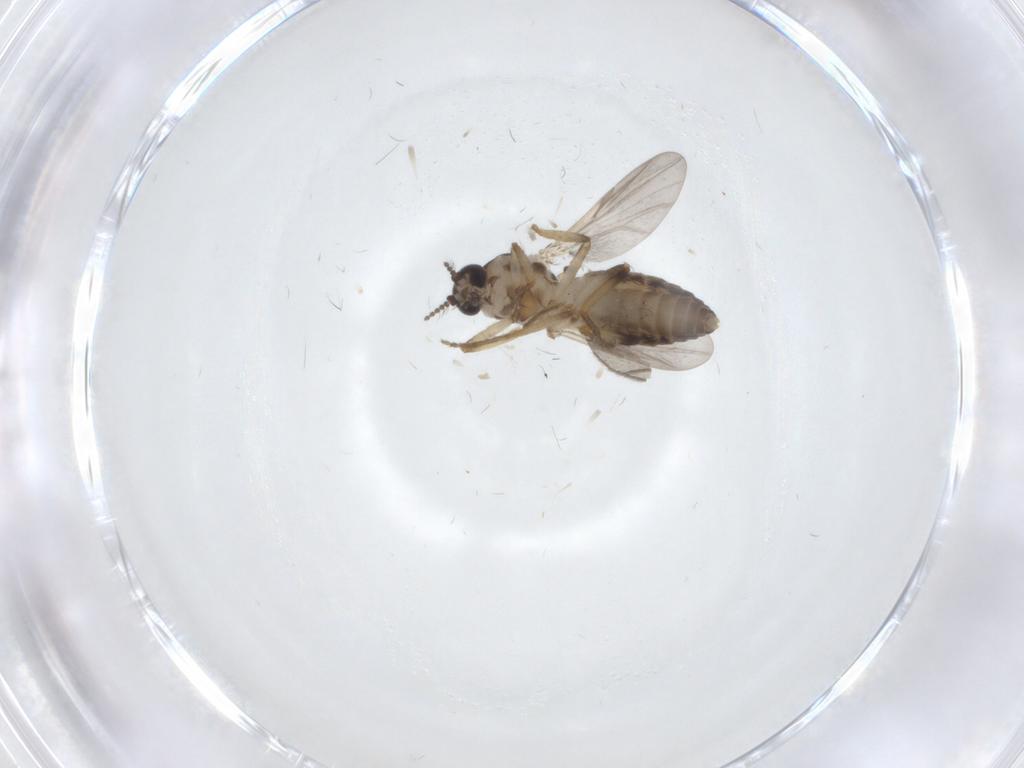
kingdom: Animalia
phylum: Arthropoda
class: Insecta
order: Diptera
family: Ceratopogonidae
